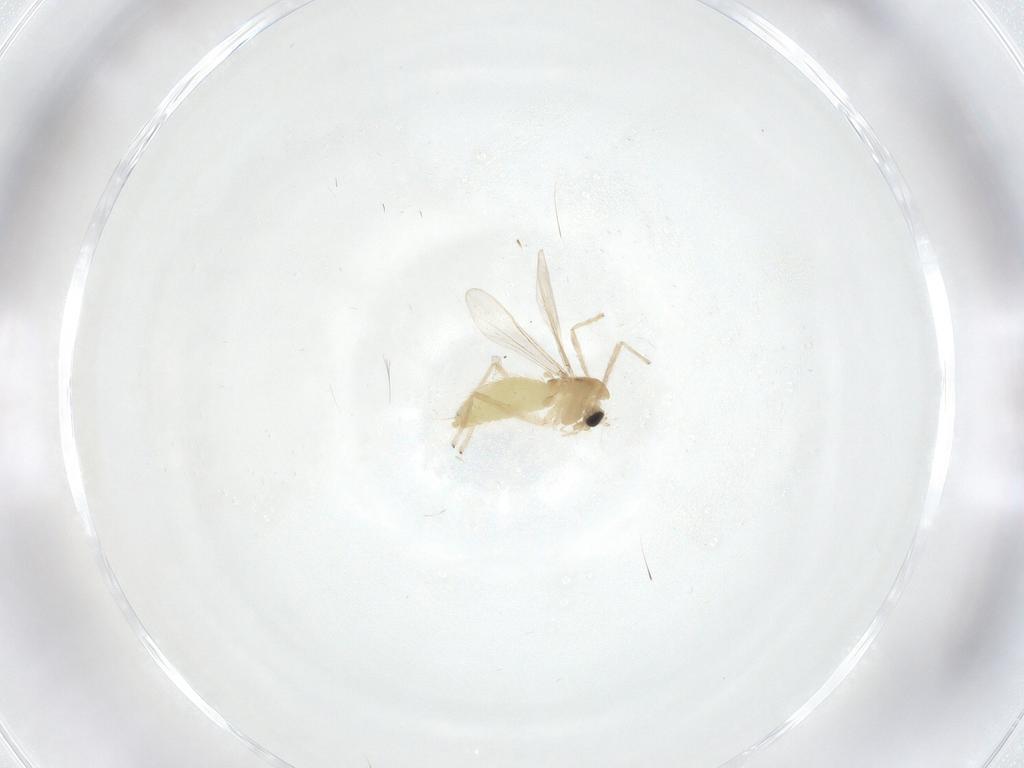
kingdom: Animalia
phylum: Arthropoda
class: Insecta
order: Diptera
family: Chironomidae
